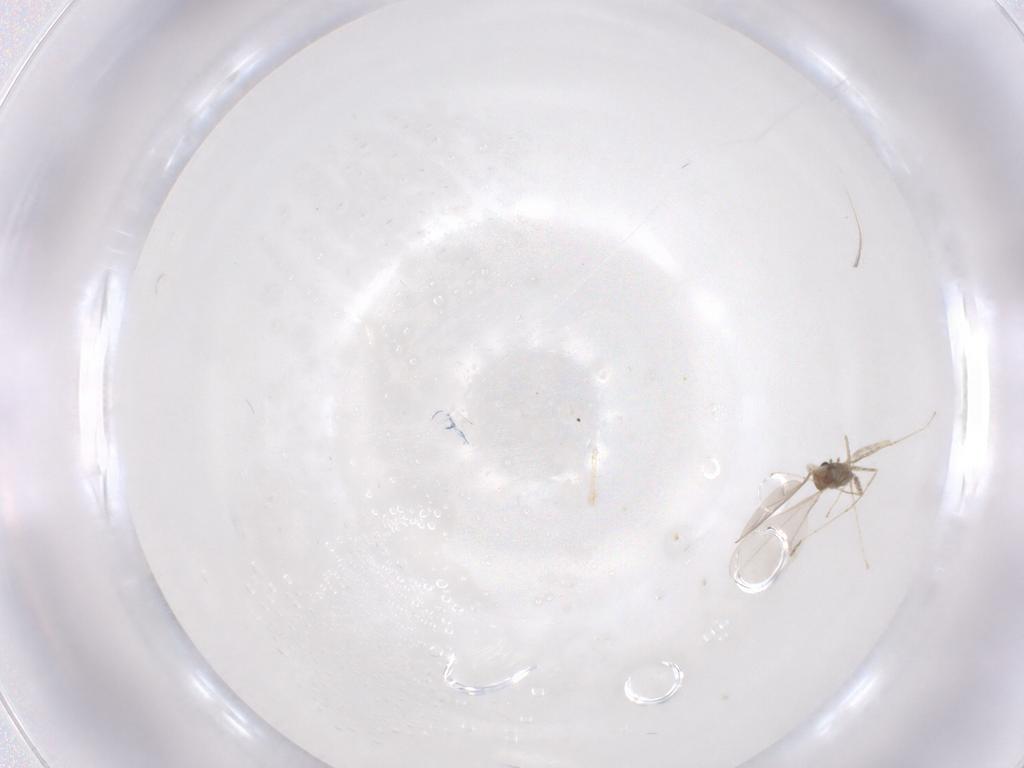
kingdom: Animalia
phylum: Arthropoda
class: Insecta
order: Diptera
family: Cecidomyiidae
